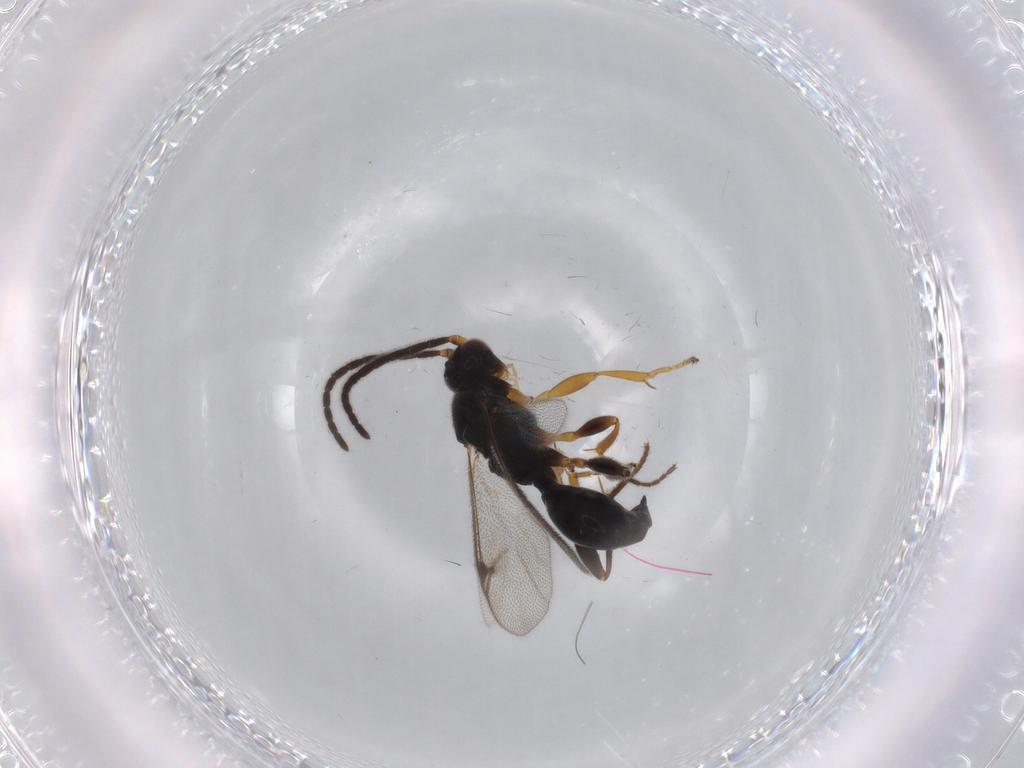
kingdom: Animalia
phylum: Arthropoda
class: Insecta
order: Hymenoptera
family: Proctotrupidae
